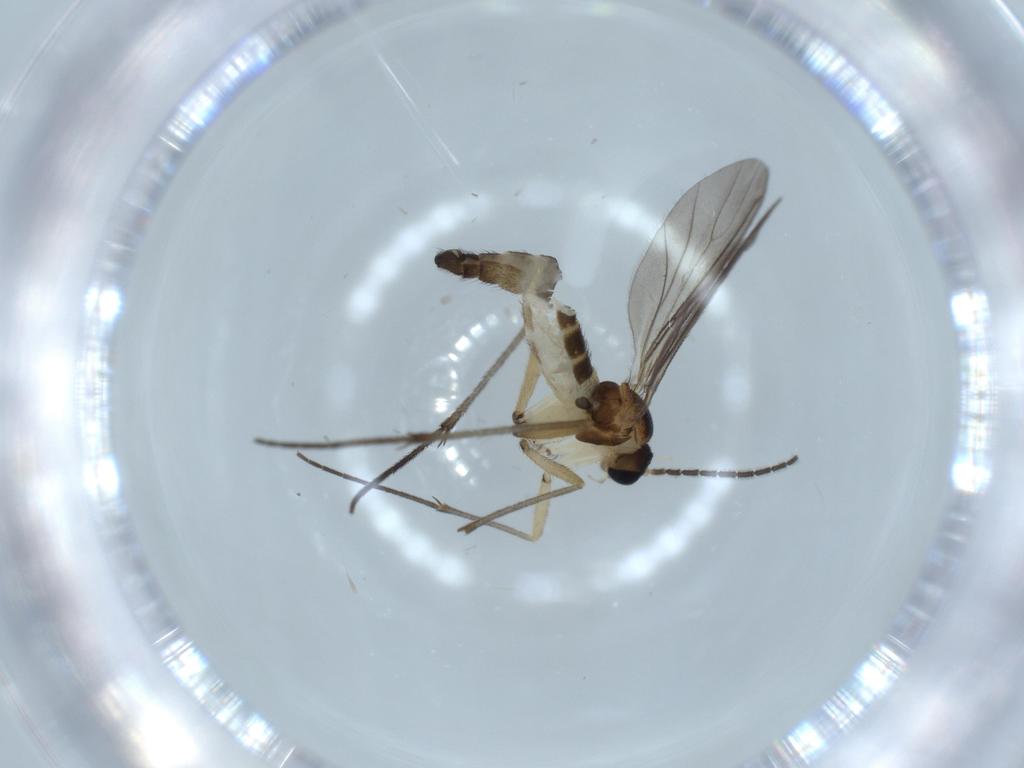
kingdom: Animalia
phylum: Arthropoda
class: Insecta
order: Diptera
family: Sciaridae
